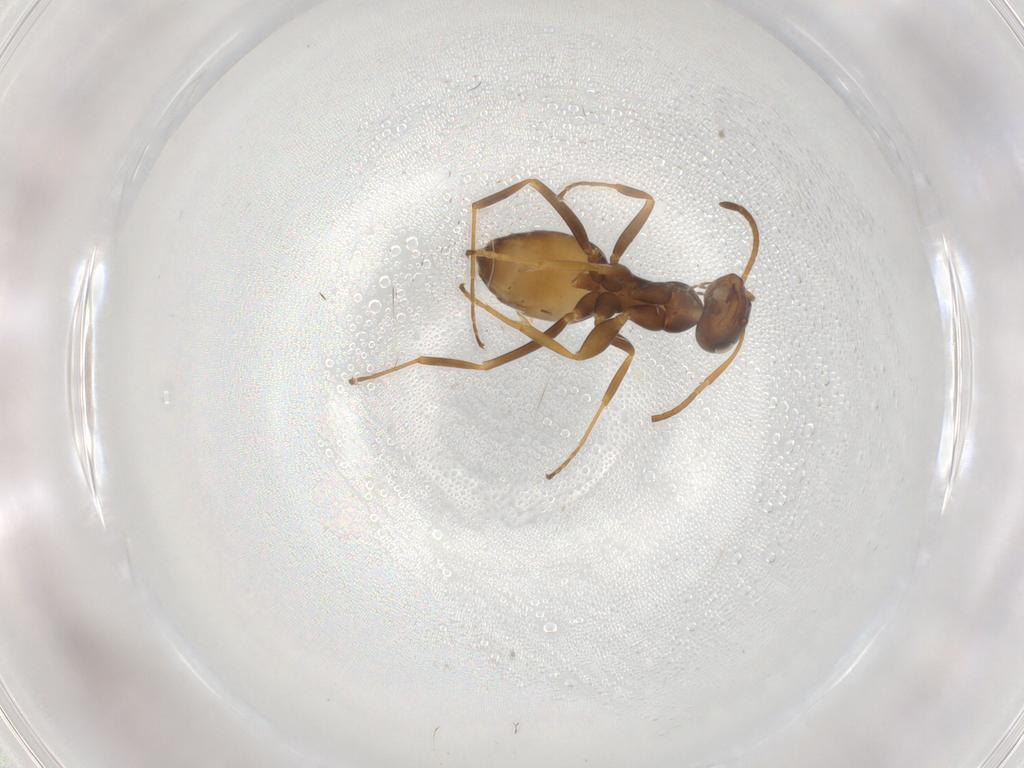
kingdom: Animalia
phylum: Arthropoda
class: Insecta
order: Hymenoptera
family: Formicidae
